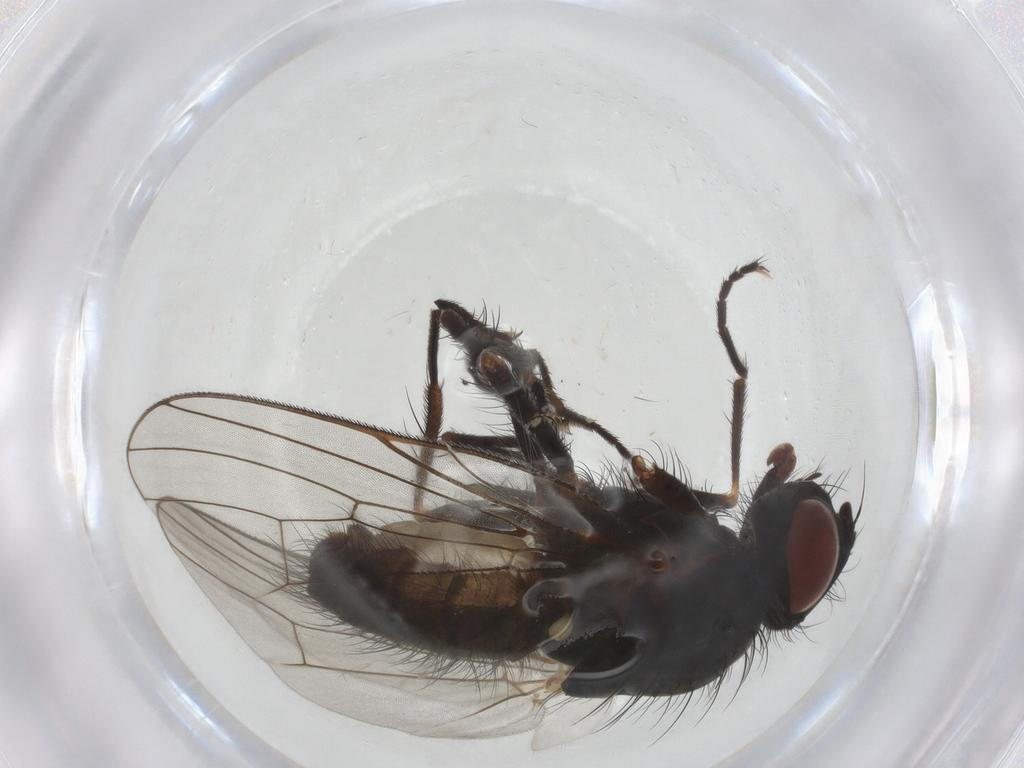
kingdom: Animalia
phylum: Arthropoda
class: Insecta
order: Diptera
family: Anthomyiidae
